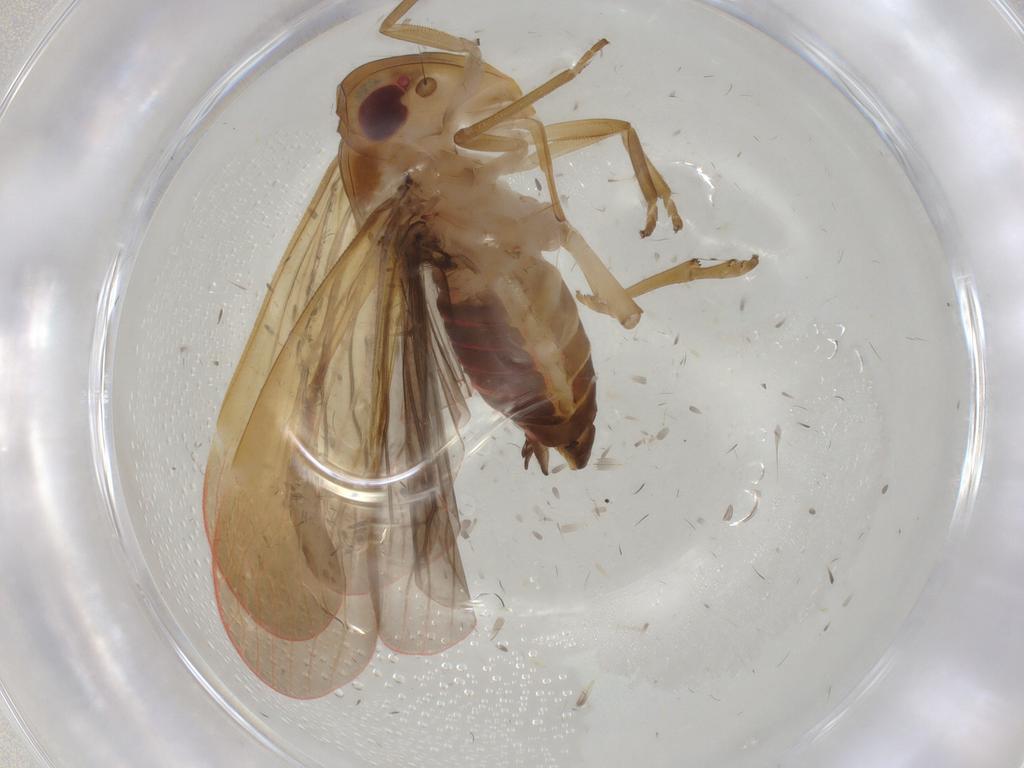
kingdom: Animalia
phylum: Arthropoda
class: Insecta
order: Hemiptera
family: Achilidae
